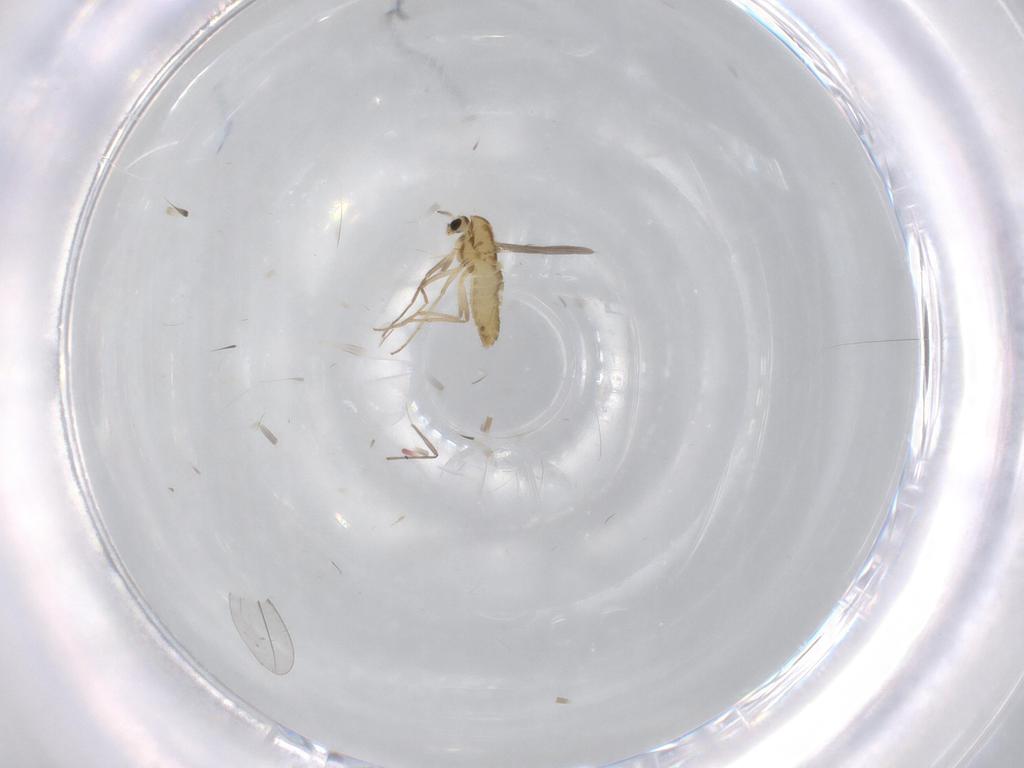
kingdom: Animalia
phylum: Arthropoda
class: Insecta
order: Diptera
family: Chironomidae
